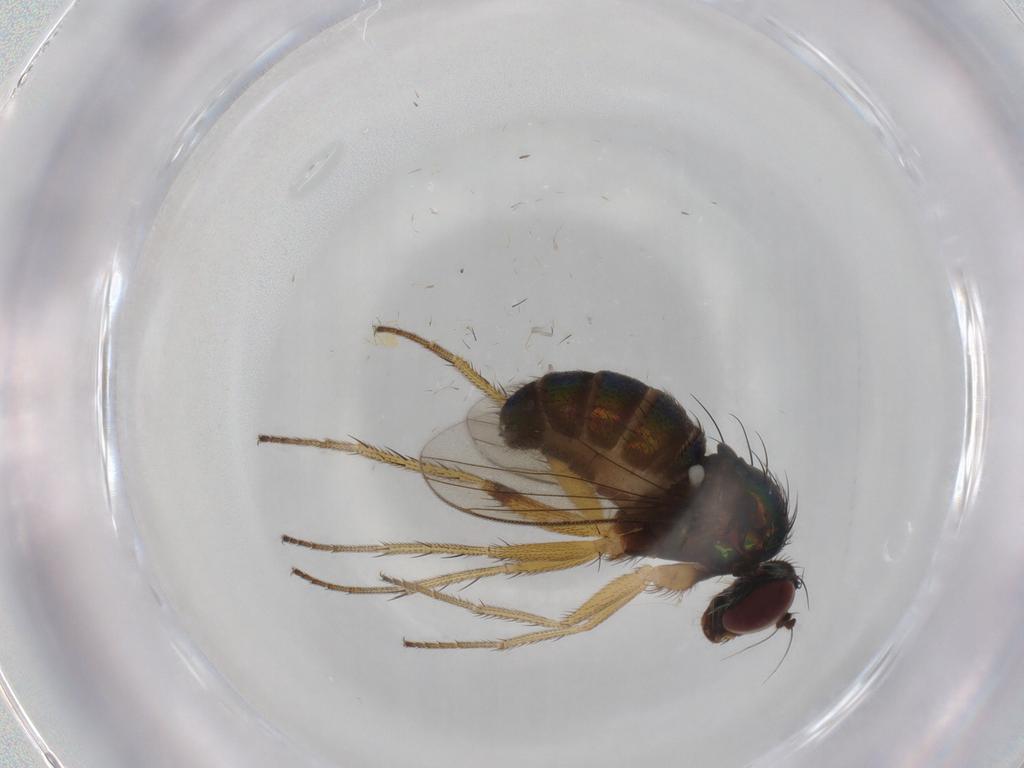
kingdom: Animalia
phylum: Arthropoda
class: Insecta
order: Diptera
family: Dolichopodidae
